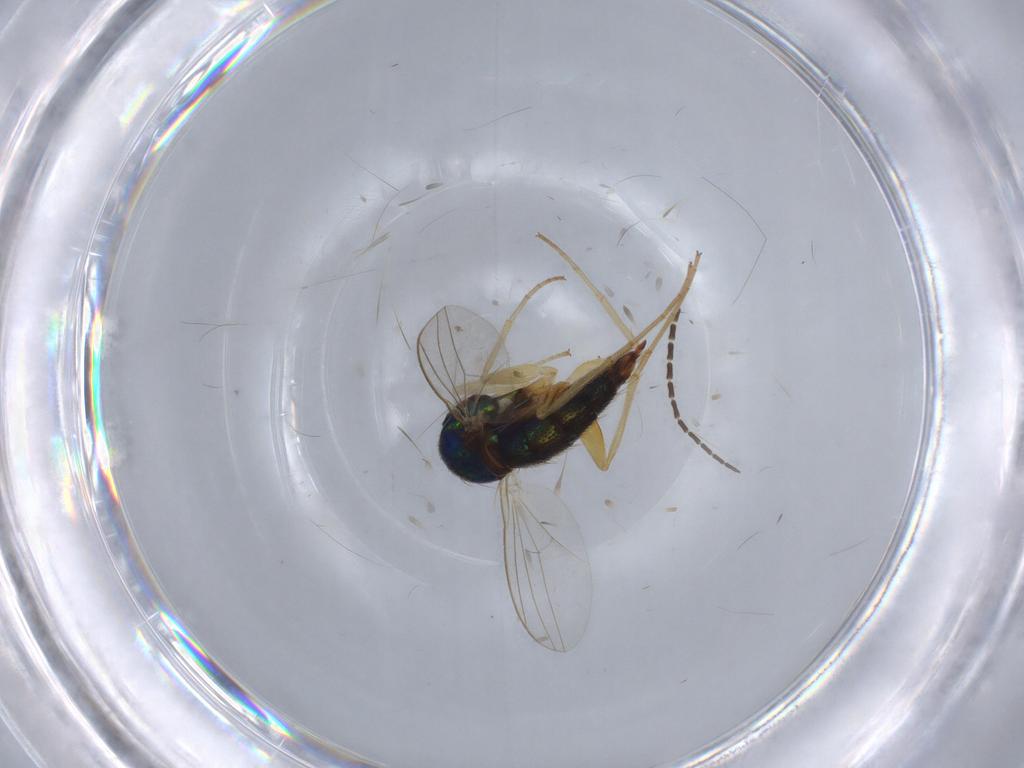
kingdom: Animalia
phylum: Arthropoda
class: Insecta
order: Diptera
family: Dolichopodidae
